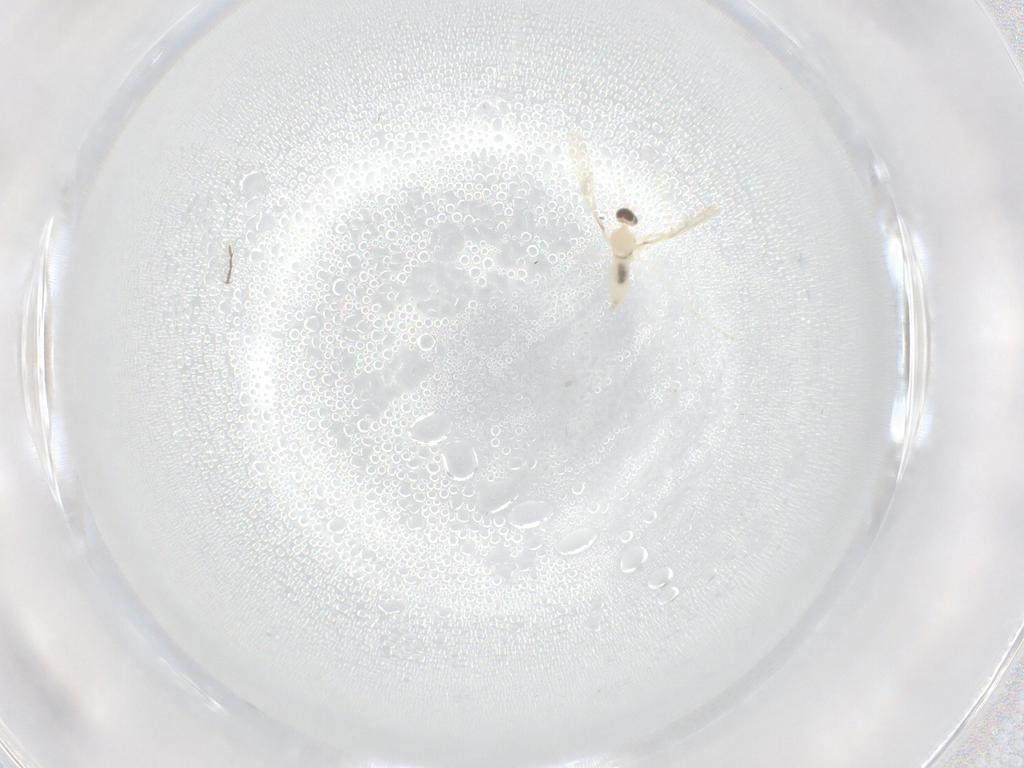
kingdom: Animalia
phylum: Arthropoda
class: Insecta
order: Diptera
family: Ceratopogonidae
